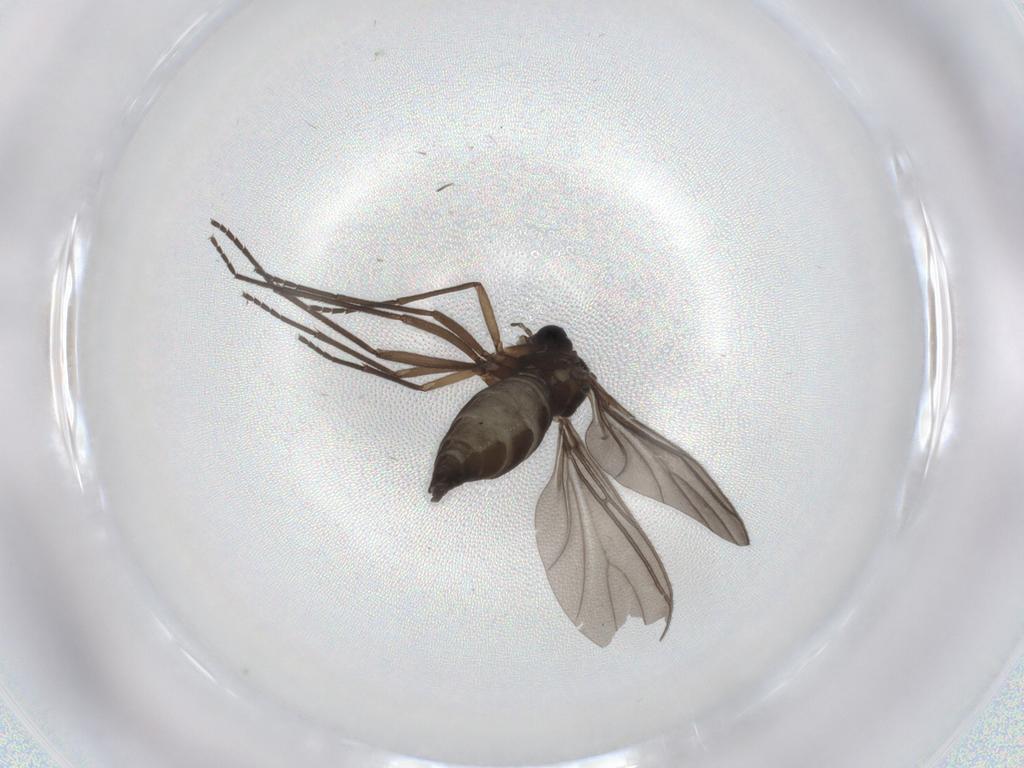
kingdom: Animalia
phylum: Arthropoda
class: Insecta
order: Diptera
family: Sciaridae
